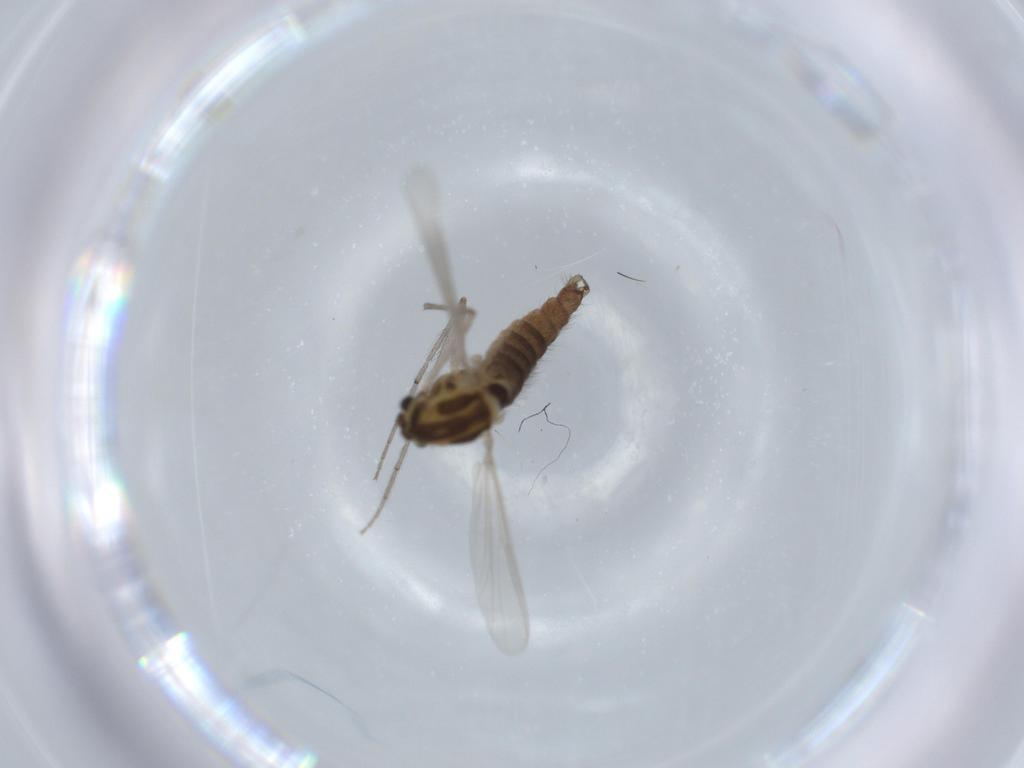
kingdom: Animalia
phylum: Arthropoda
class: Insecta
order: Diptera
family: Chironomidae
